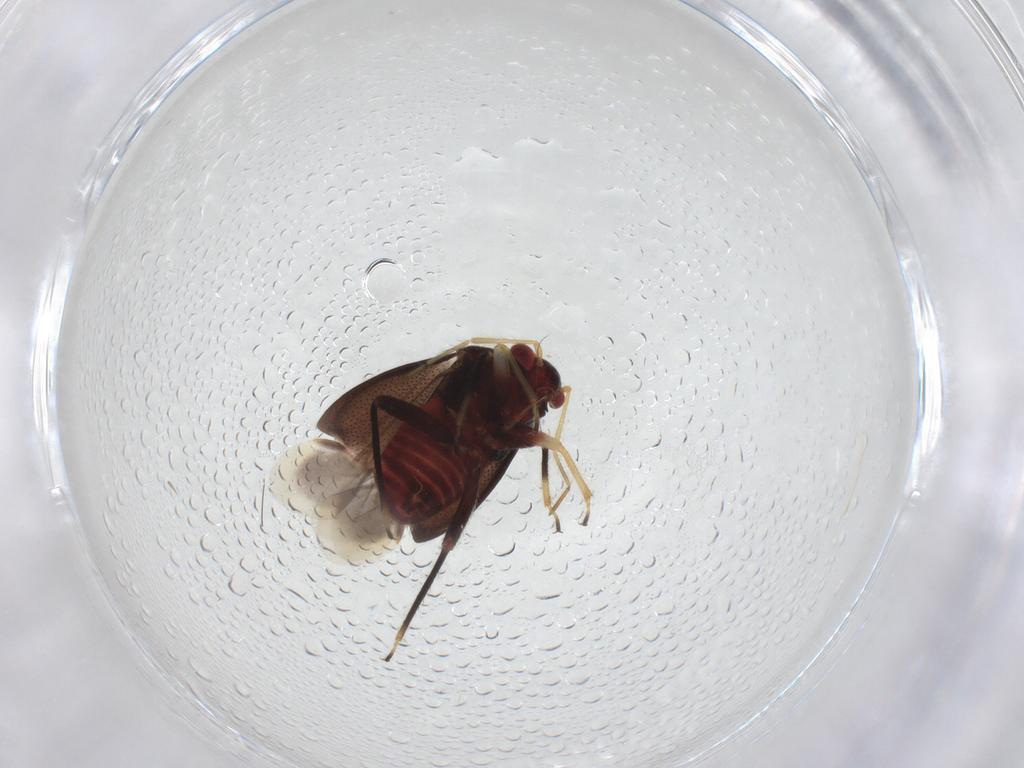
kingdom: Animalia
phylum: Arthropoda
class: Insecta
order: Hemiptera
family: Miridae
